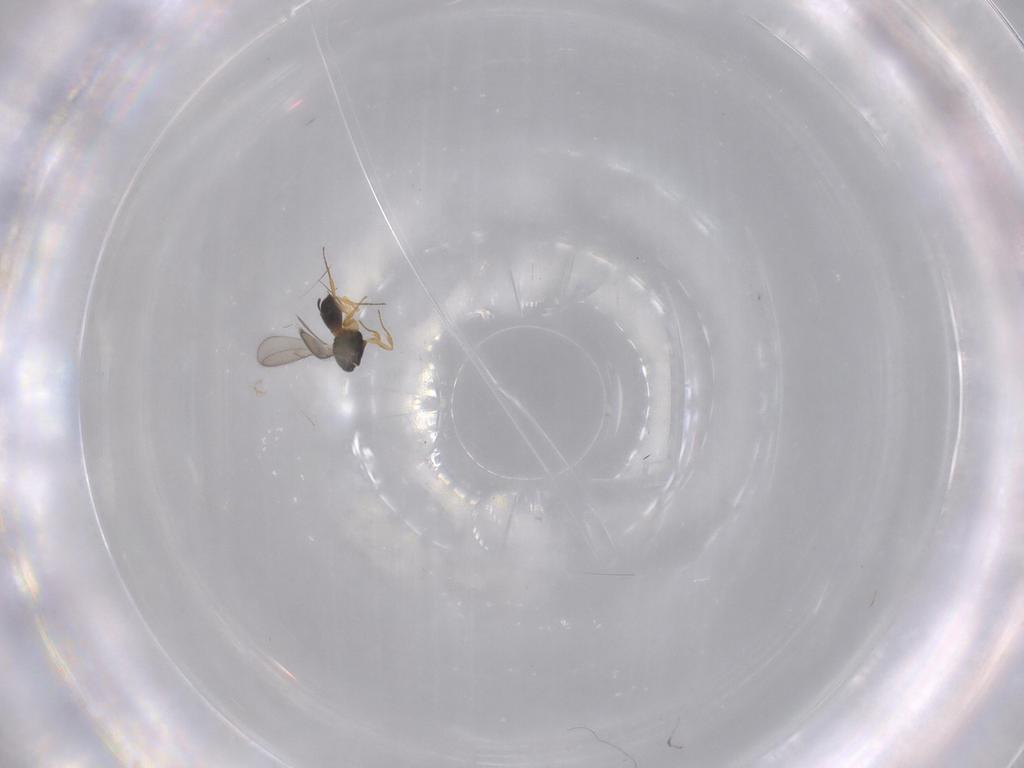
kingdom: Animalia
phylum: Arthropoda
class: Insecta
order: Hymenoptera
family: Scelionidae
